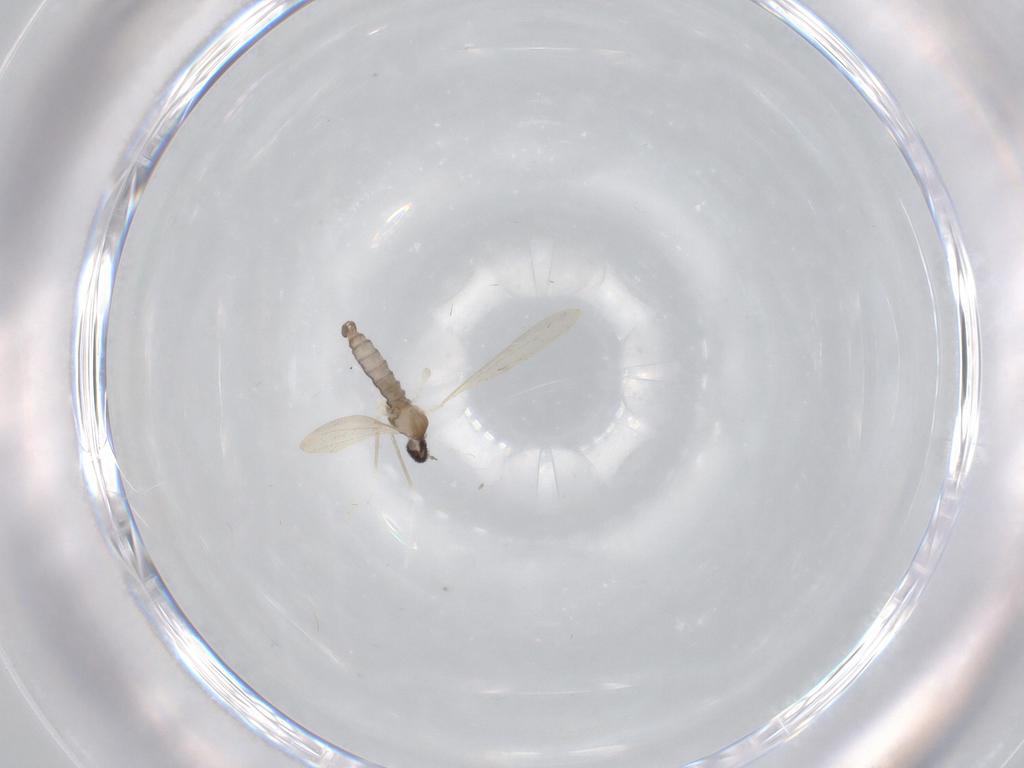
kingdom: Animalia
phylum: Arthropoda
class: Insecta
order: Diptera
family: Cecidomyiidae
